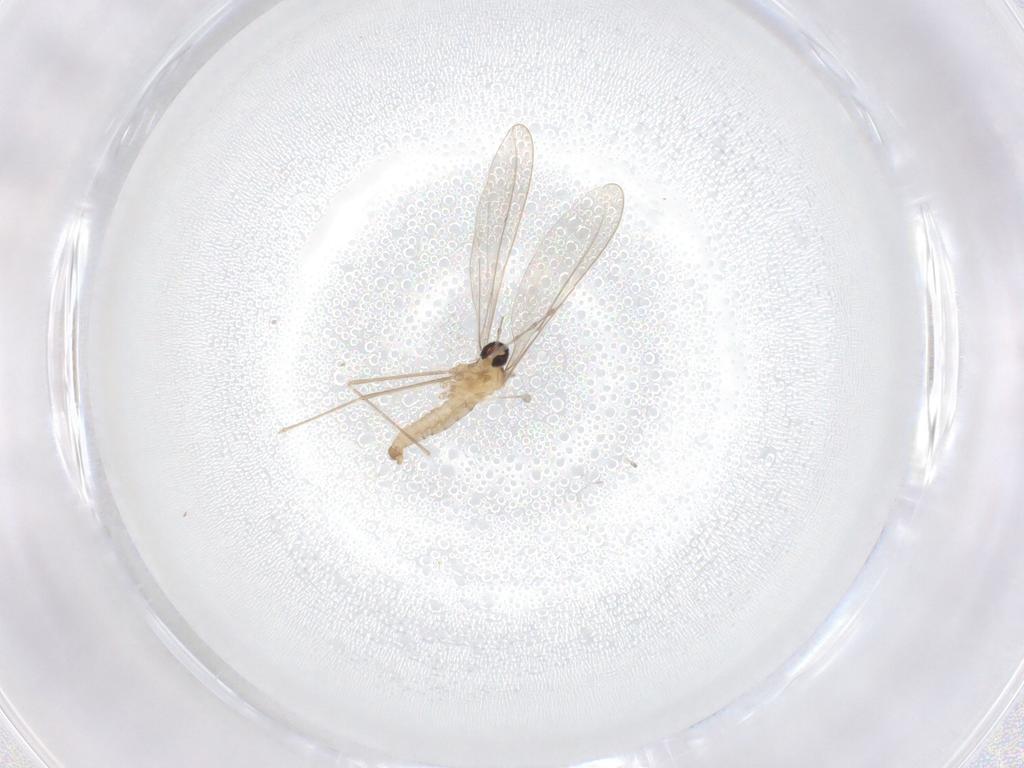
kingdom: Animalia
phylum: Arthropoda
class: Insecta
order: Diptera
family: Cecidomyiidae
